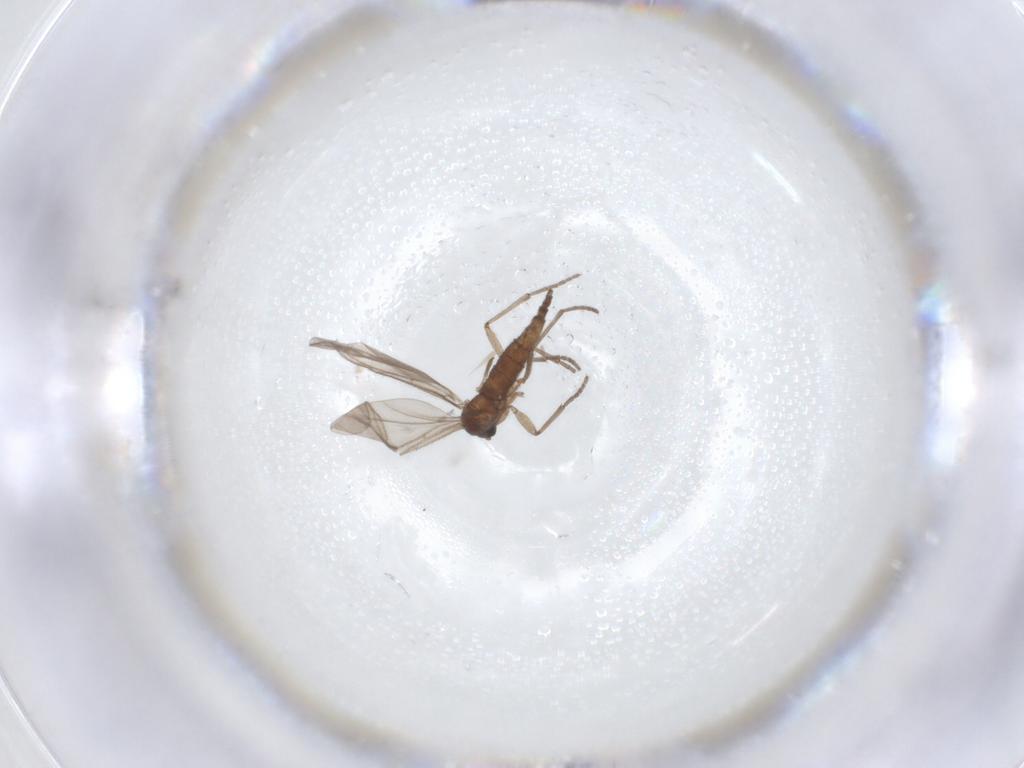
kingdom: Animalia
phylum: Arthropoda
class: Insecta
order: Diptera
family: Sciaridae
